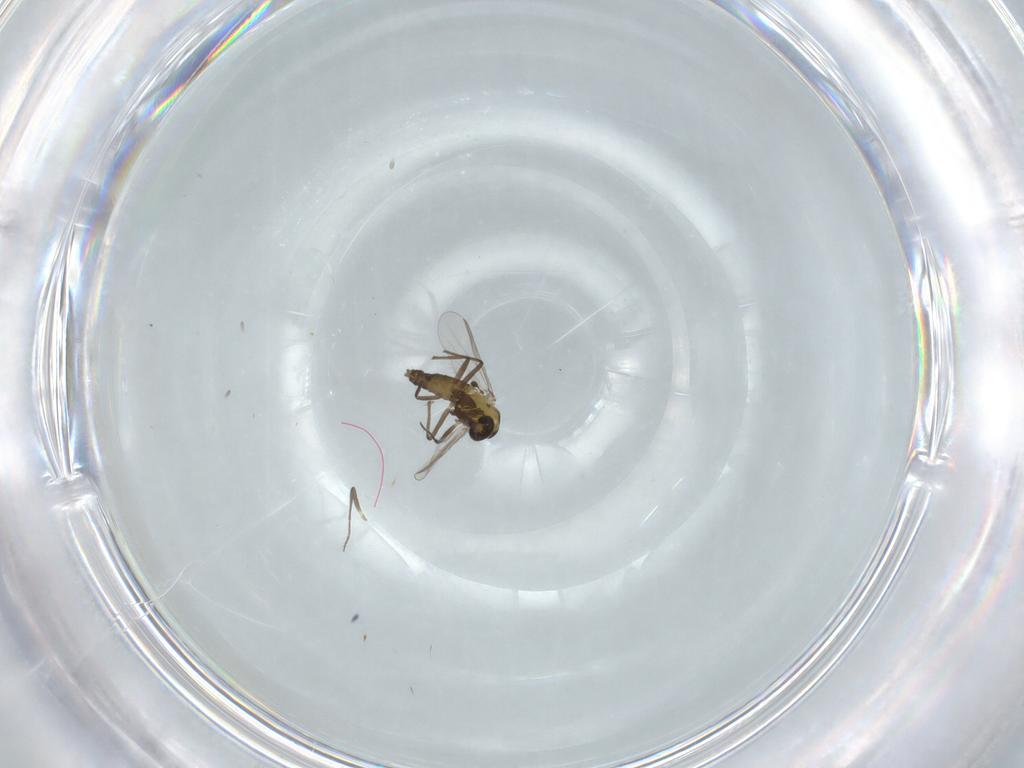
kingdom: Animalia
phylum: Arthropoda
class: Insecta
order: Diptera
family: Chironomidae
